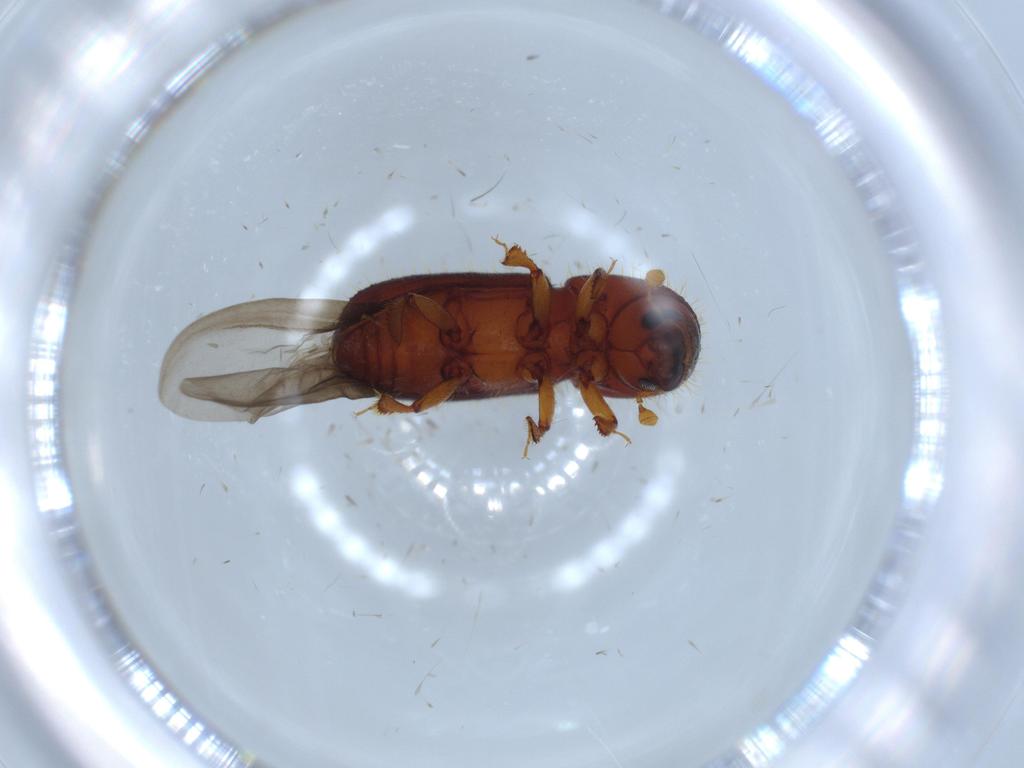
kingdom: Animalia
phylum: Arthropoda
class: Insecta
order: Coleoptera
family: Curculionidae
